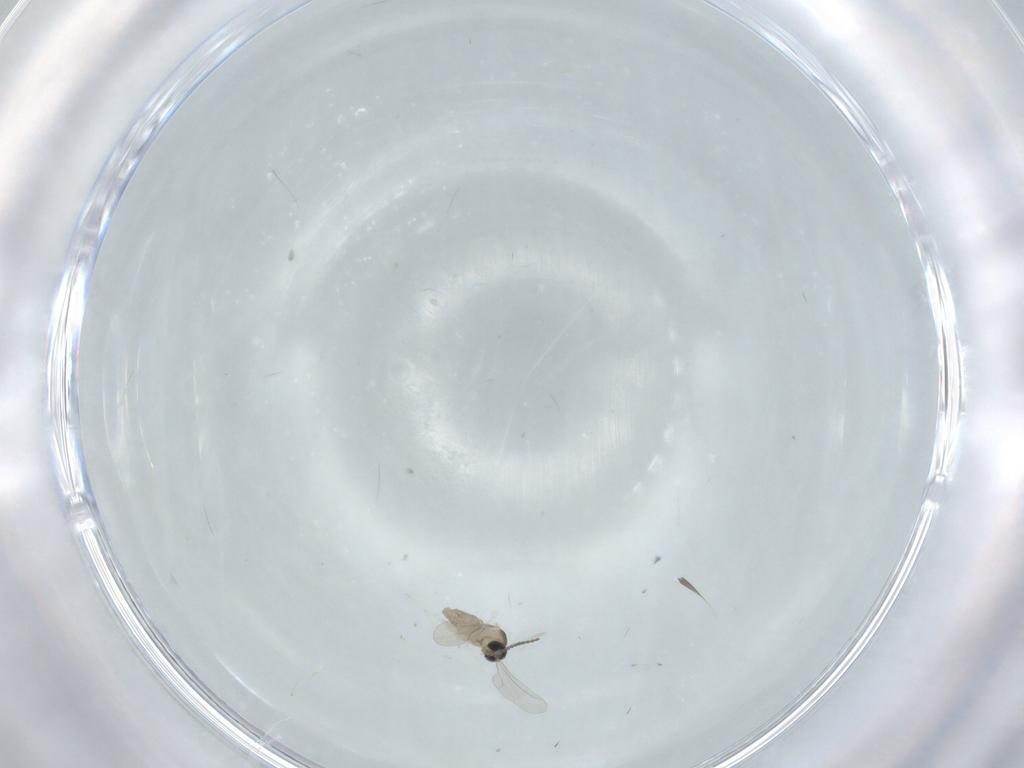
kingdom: Animalia
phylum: Arthropoda
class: Insecta
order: Diptera
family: Cecidomyiidae
